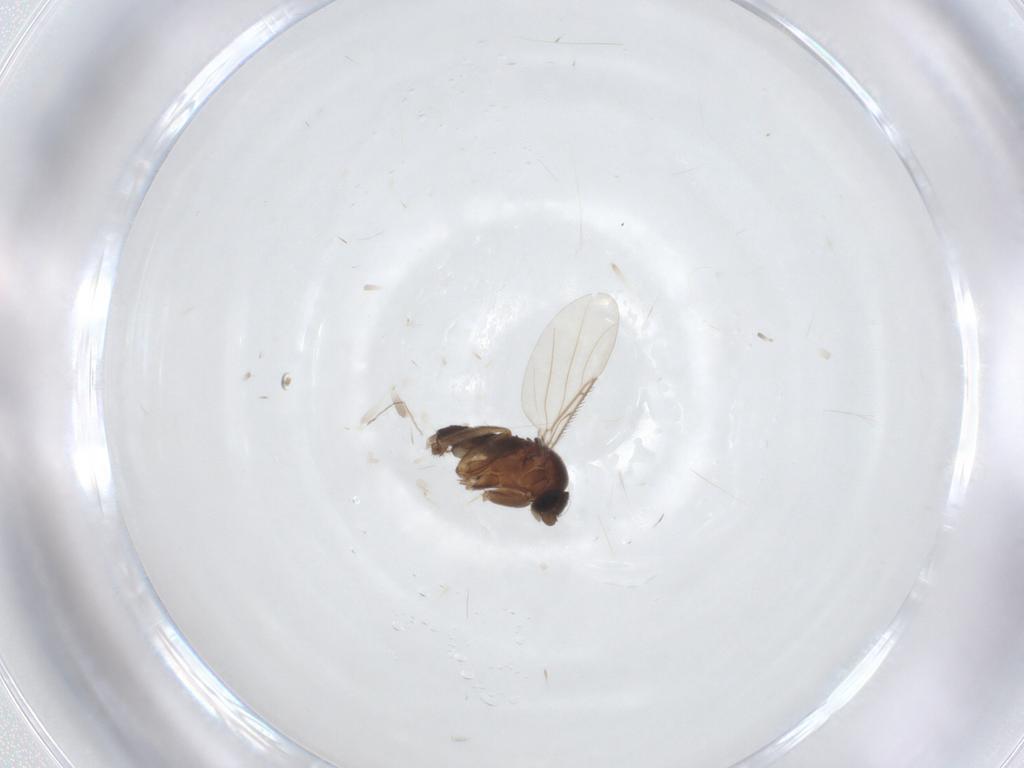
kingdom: Animalia
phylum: Arthropoda
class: Insecta
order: Diptera
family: Phoridae
